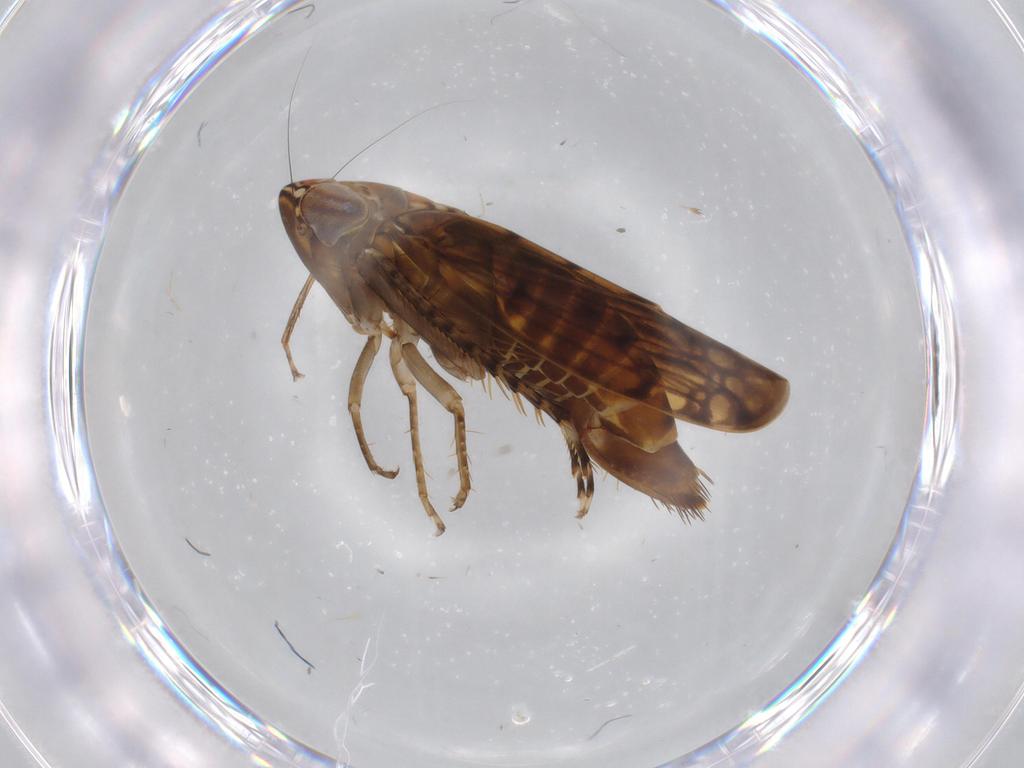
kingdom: Animalia
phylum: Arthropoda
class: Insecta
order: Hemiptera
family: Cicadellidae
